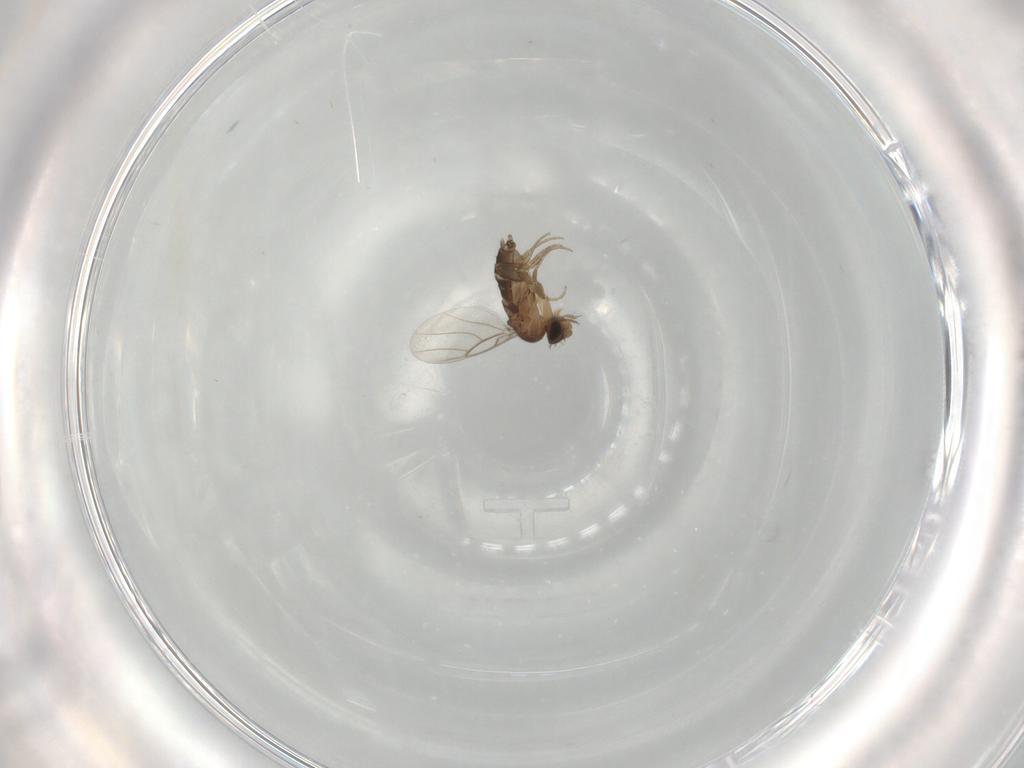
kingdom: Animalia
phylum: Arthropoda
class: Insecta
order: Diptera
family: Phoridae
